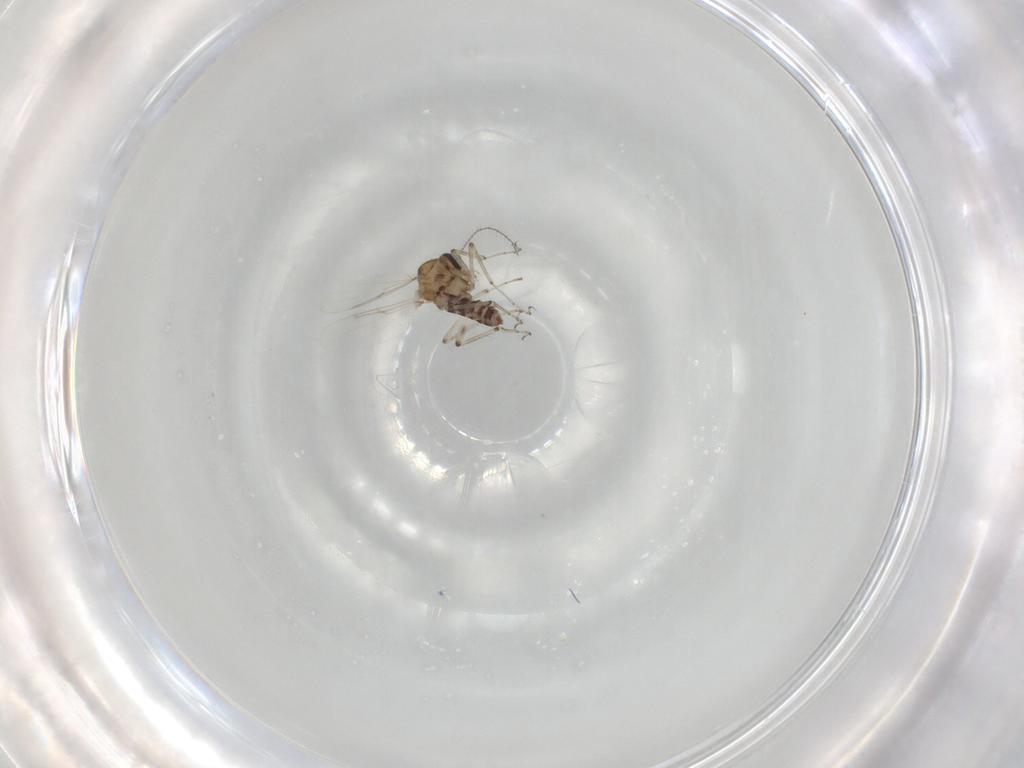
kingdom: Animalia
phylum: Arthropoda
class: Insecta
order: Diptera
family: Ceratopogonidae
